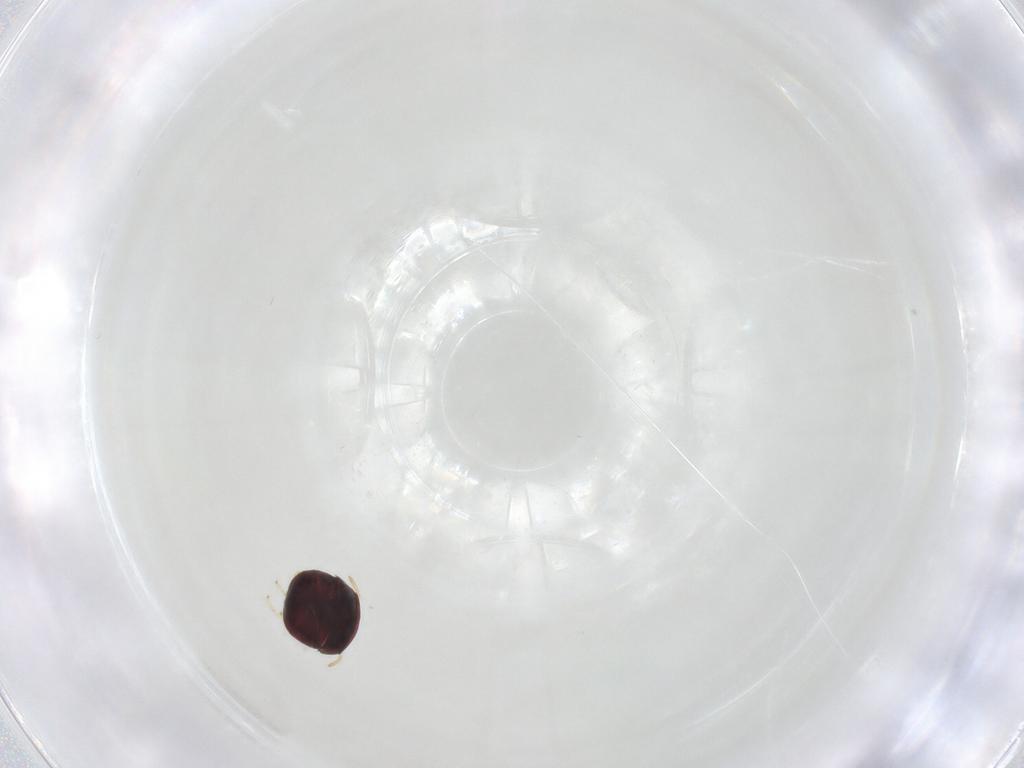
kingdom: Animalia
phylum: Arthropoda
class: Insecta
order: Hemiptera
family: Anthocoridae
